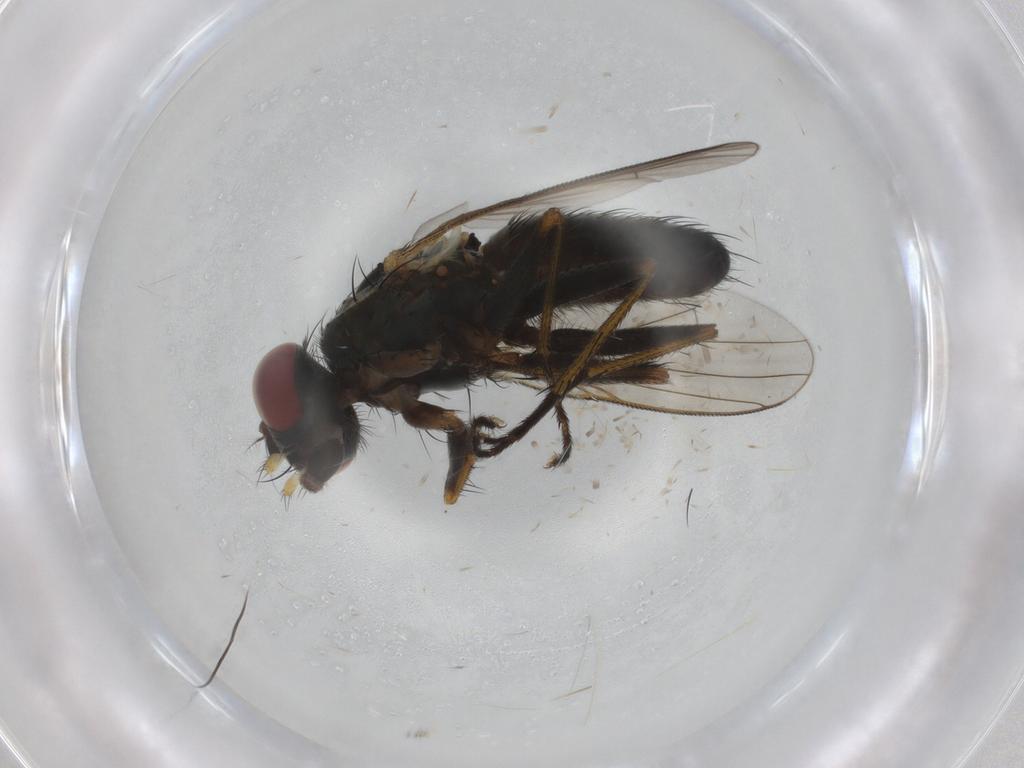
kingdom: Animalia
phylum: Arthropoda
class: Insecta
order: Diptera
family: Muscidae
